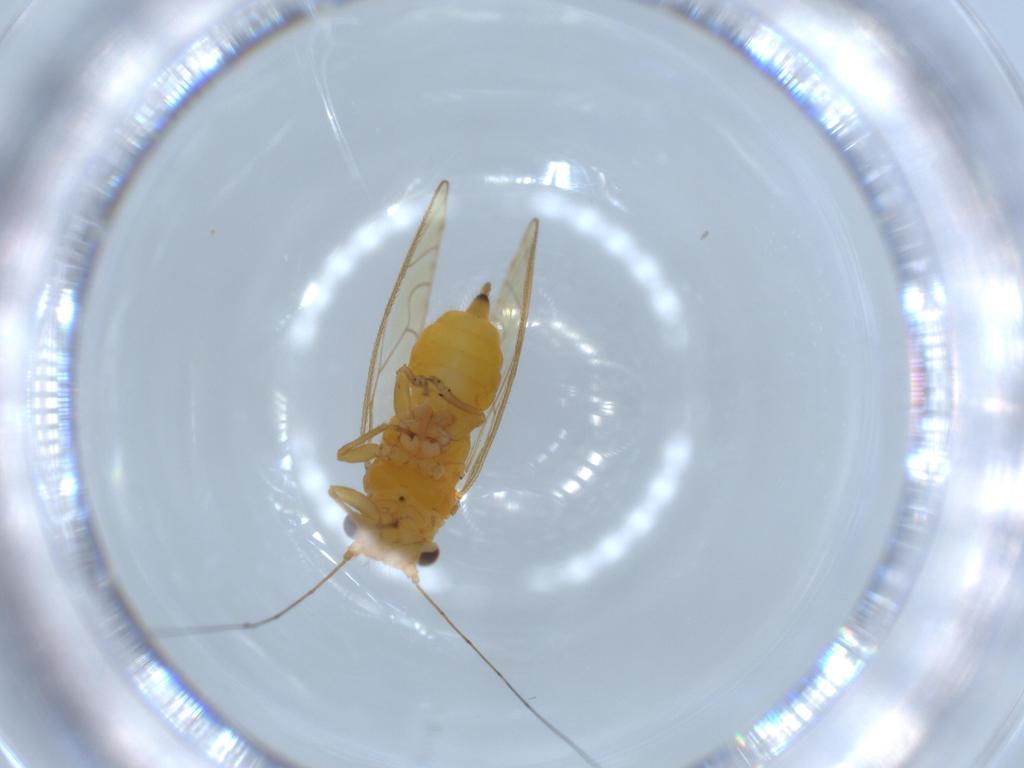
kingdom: Animalia
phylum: Arthropoda
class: Insecta
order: Hemiptera
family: Psyllidae
